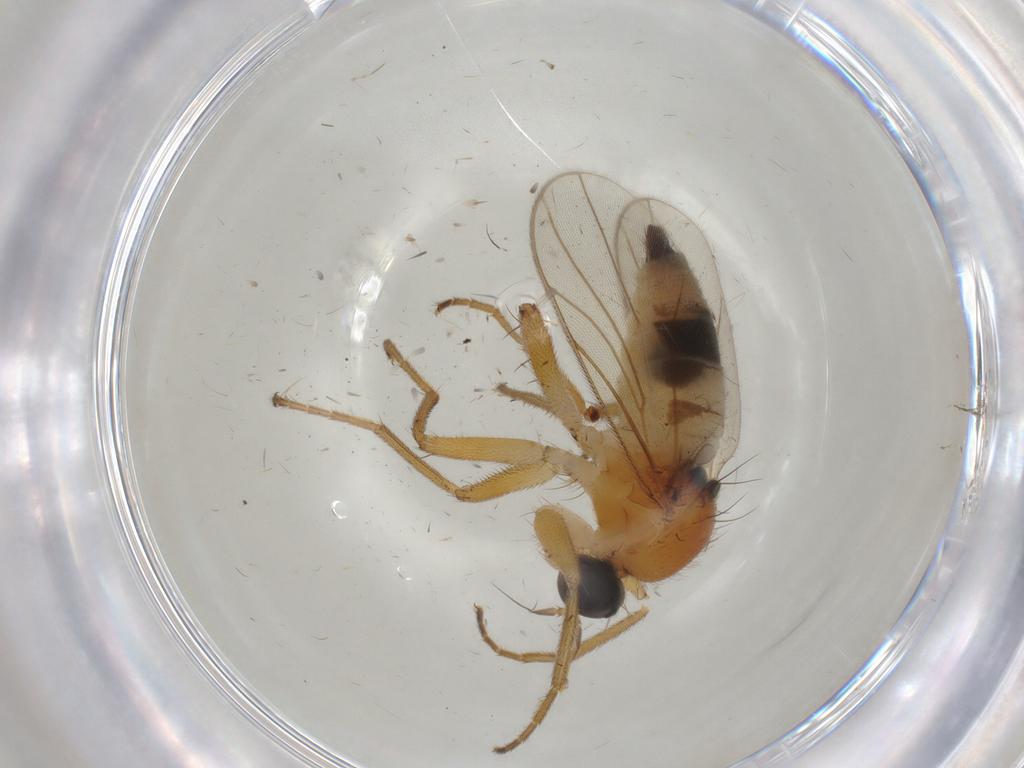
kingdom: Animalia
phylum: Arthropoda
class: Insecta
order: Diptera
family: Hybotidae
